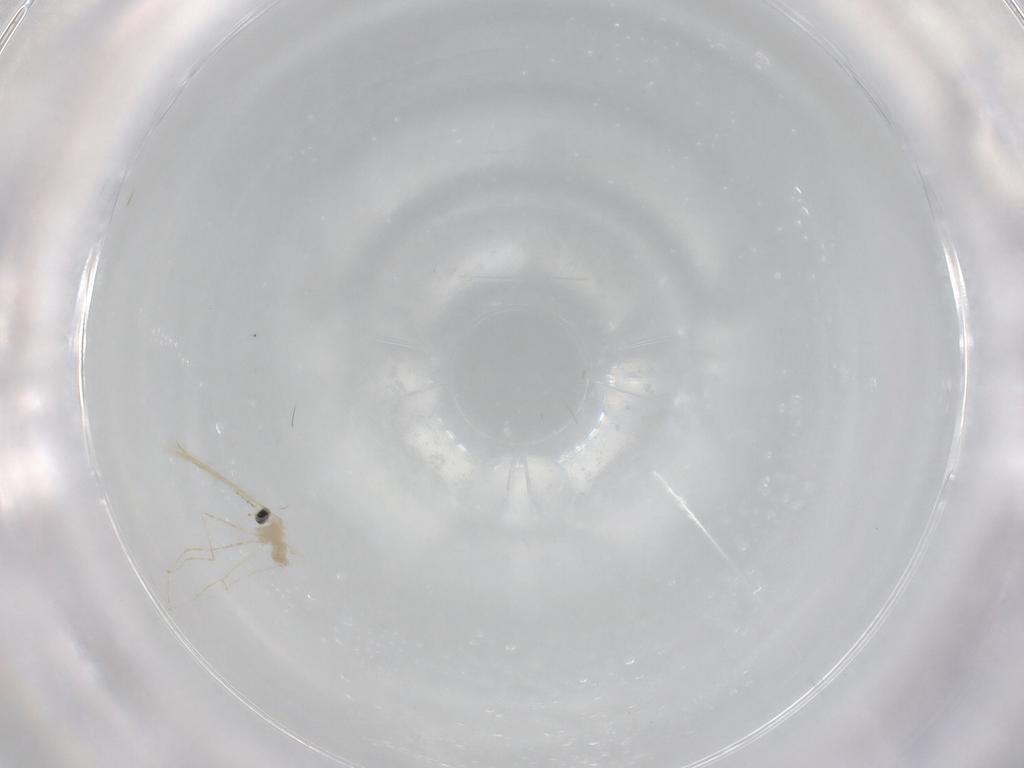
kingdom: Animalia
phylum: Arthropoda
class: Insecta
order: Diptera
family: Cecidomyiidae
